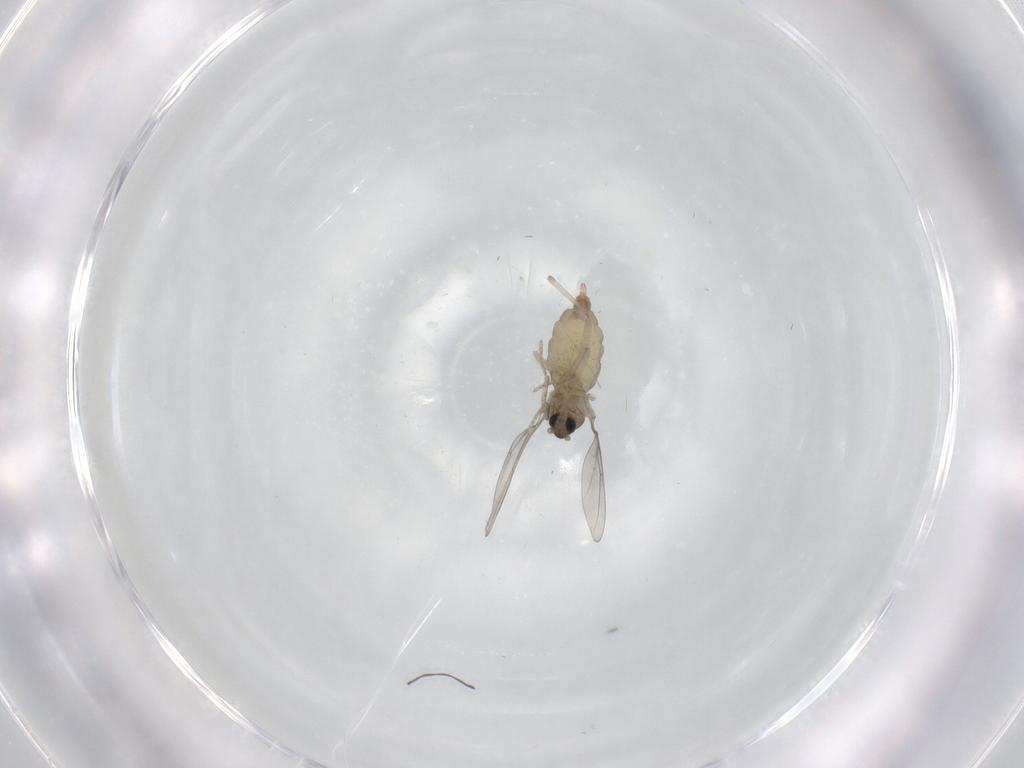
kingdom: Animalia
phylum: Arthropoda
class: Insecta
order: Diptera
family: Cecidomyiidae
